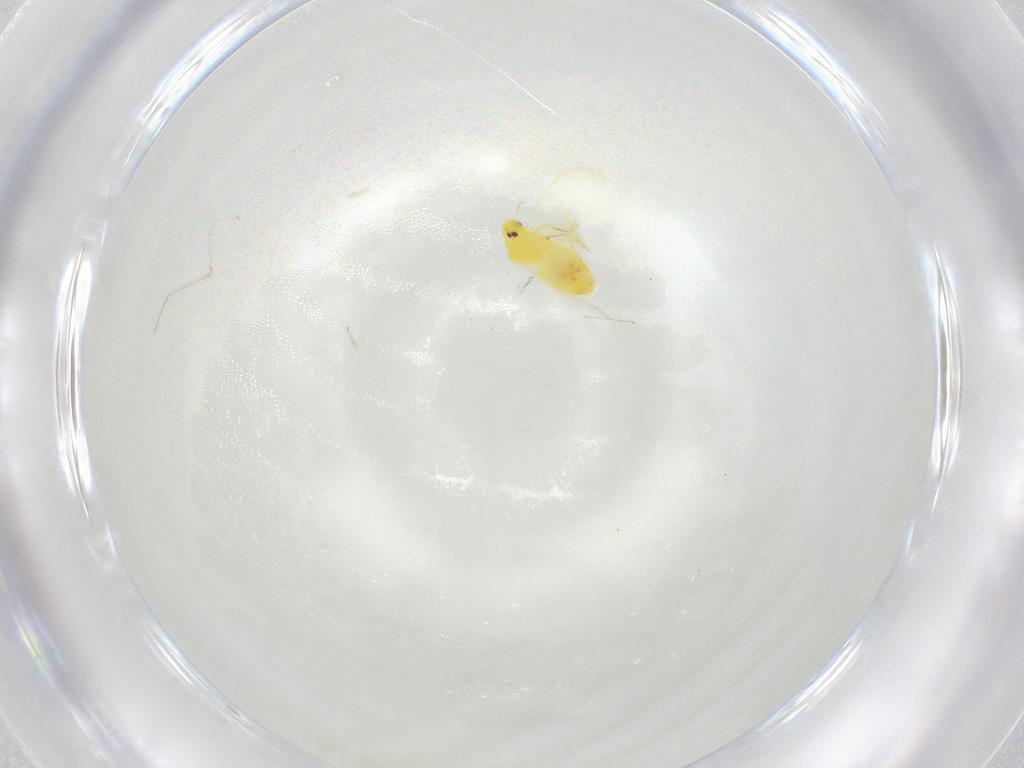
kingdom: Animalia
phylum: Arthropoda
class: Insecta
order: Hemiptera
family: Aleyrodidae
